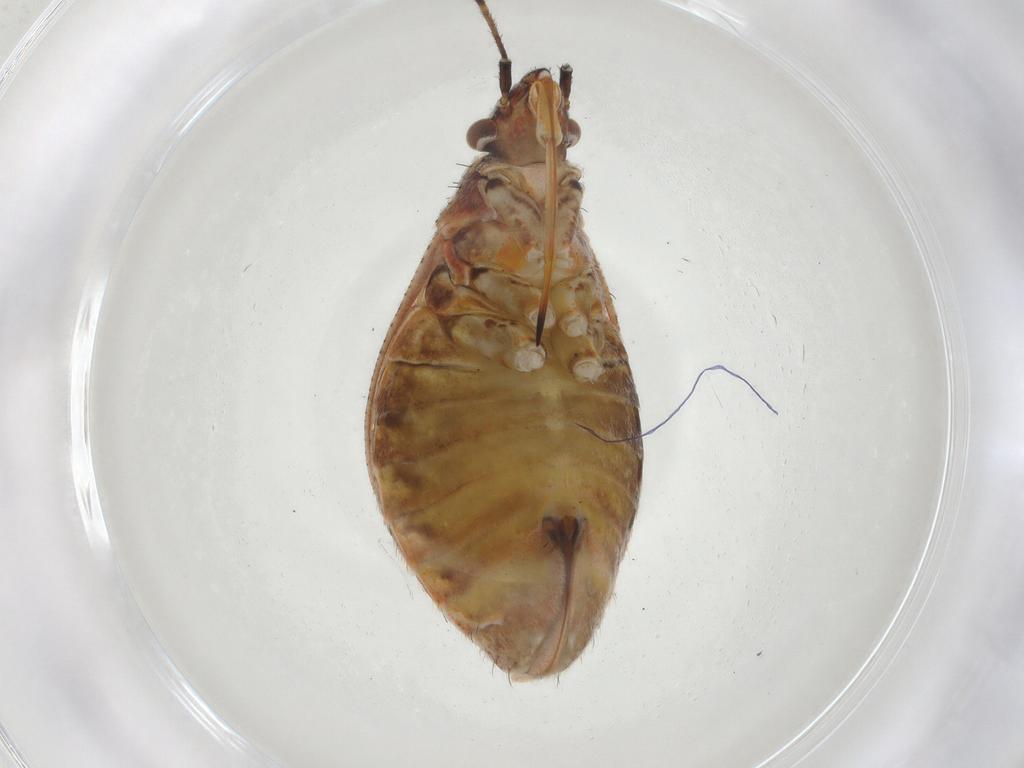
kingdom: Animalia
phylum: Arthropoda
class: Insecta
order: Hemiptera
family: Miridae
